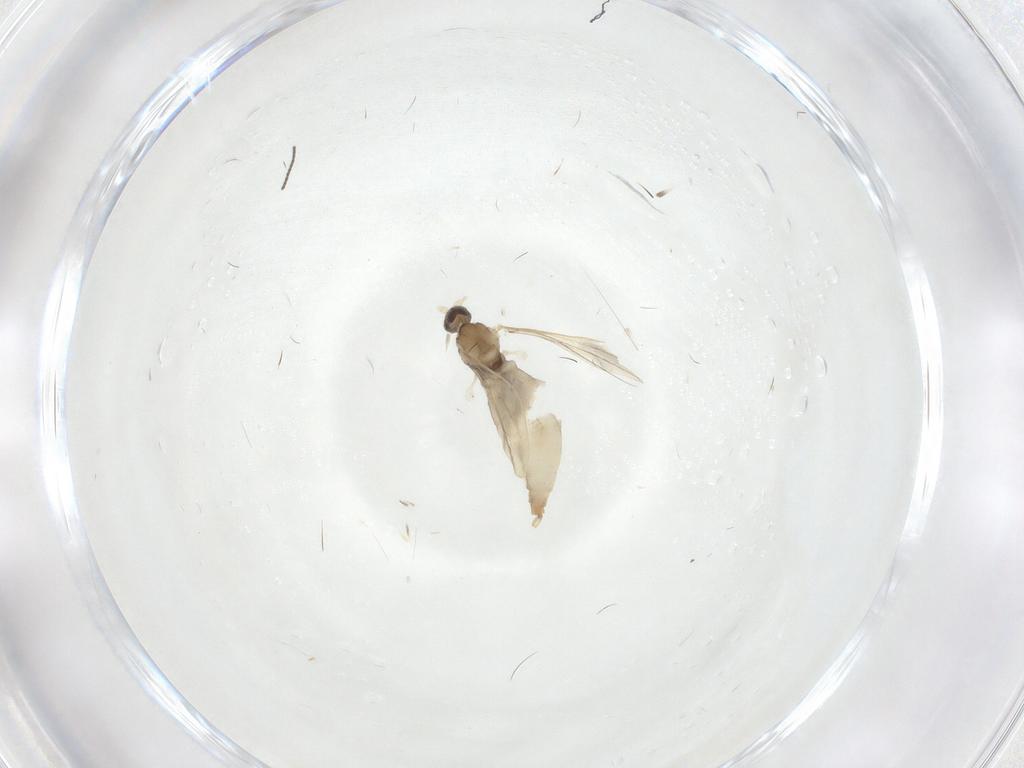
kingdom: Animalia
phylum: Arthropoda
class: Insecta
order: Diptera
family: Cecidomyiidae
